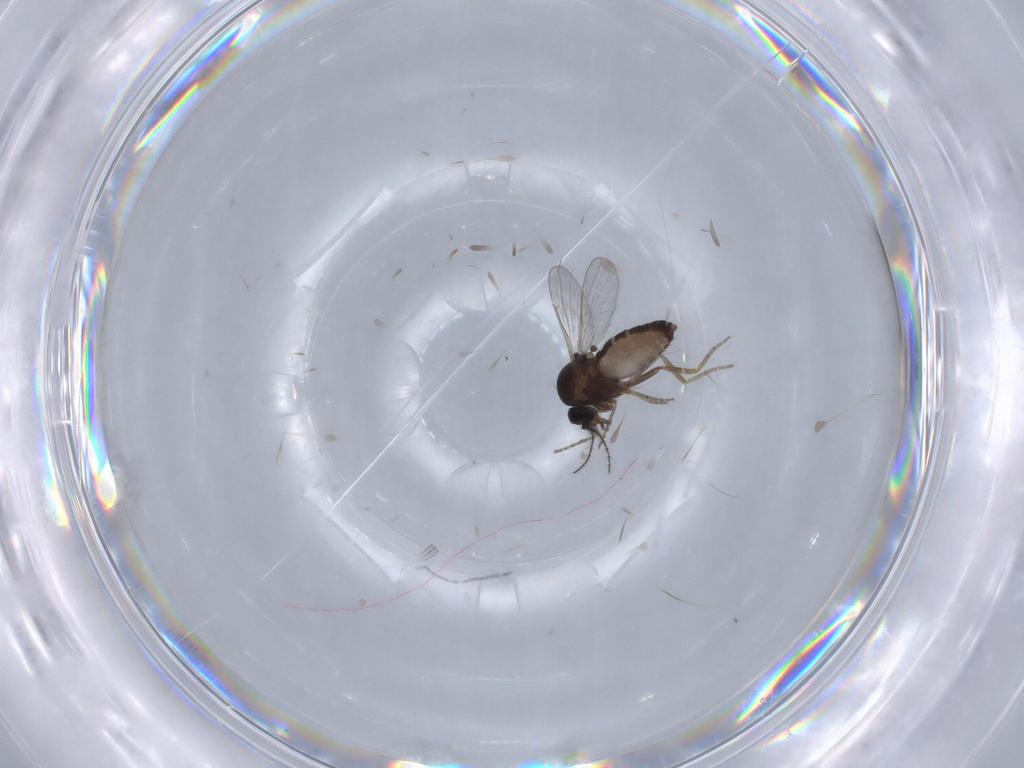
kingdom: Animalia
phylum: Arthropoda
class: Insecta
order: Diptera
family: Ceratopogonidae
